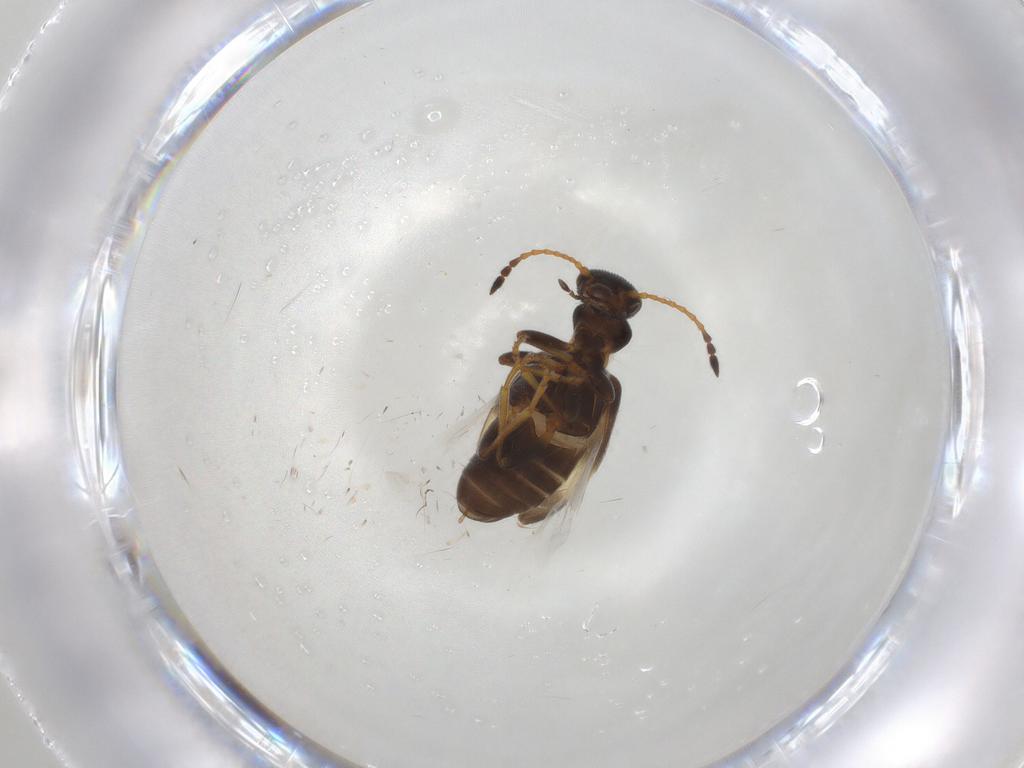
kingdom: Animalia
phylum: Arthropoda
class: Insecta
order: Coleoptera
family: Anthicidae
